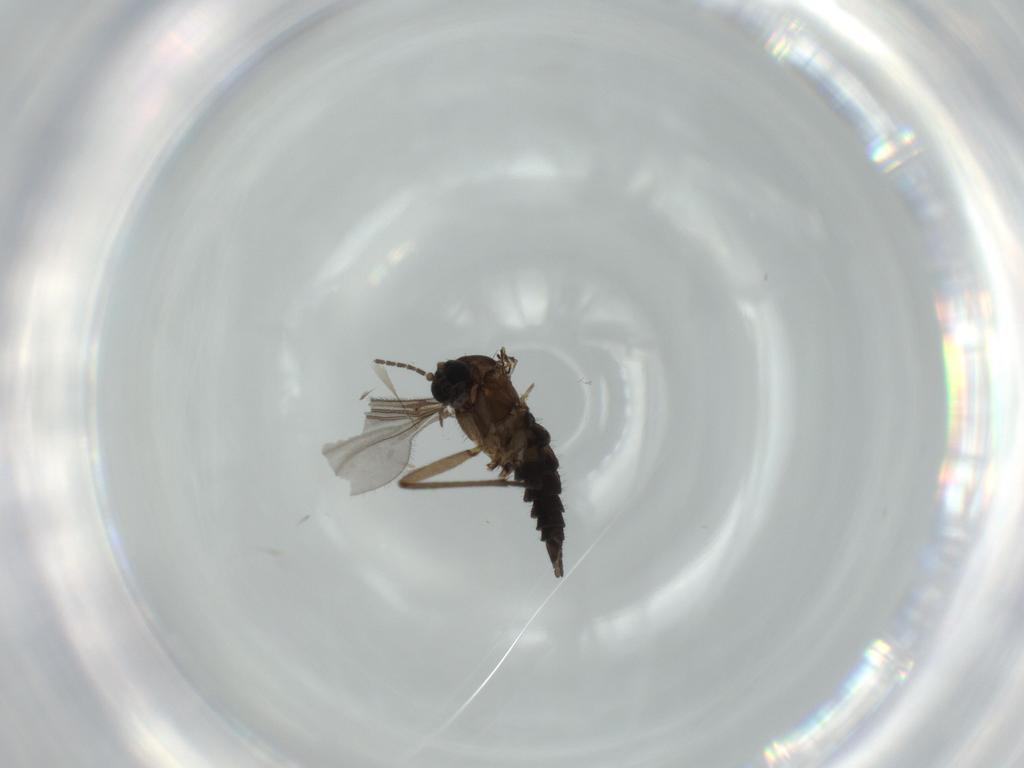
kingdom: Animalia
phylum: Arthropoda
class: Insecta
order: Diptera
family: Sciaridae
